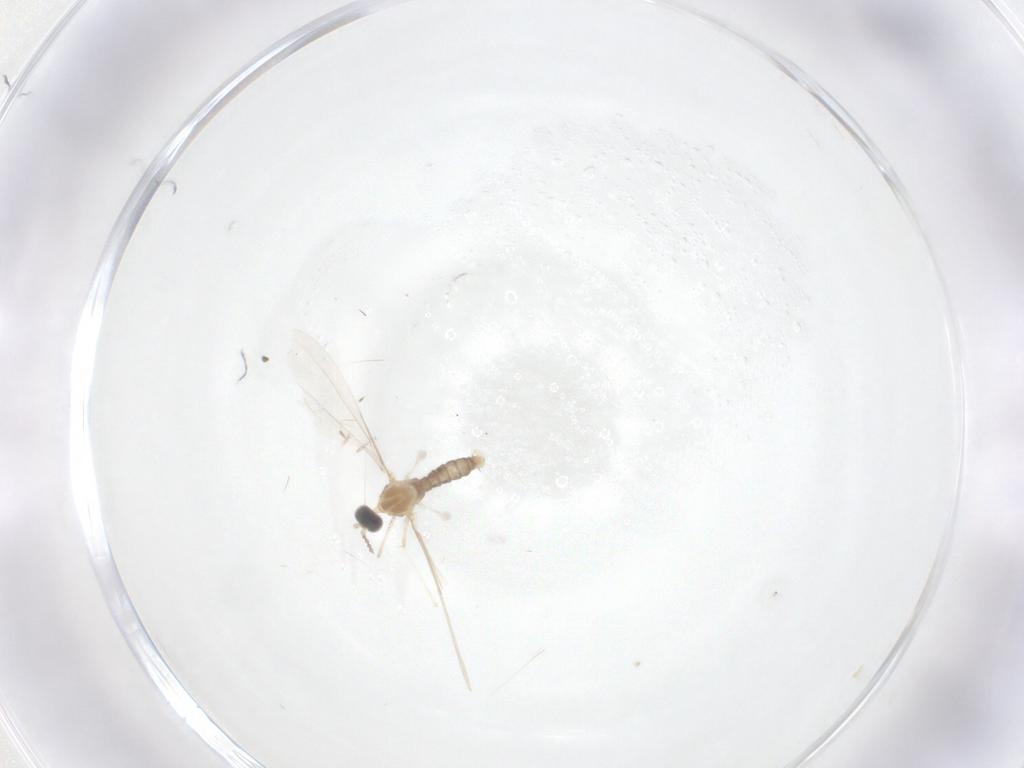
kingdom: Animalia
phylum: Arthropoda
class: Insecta
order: Diptera
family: Cecidomyiidae
